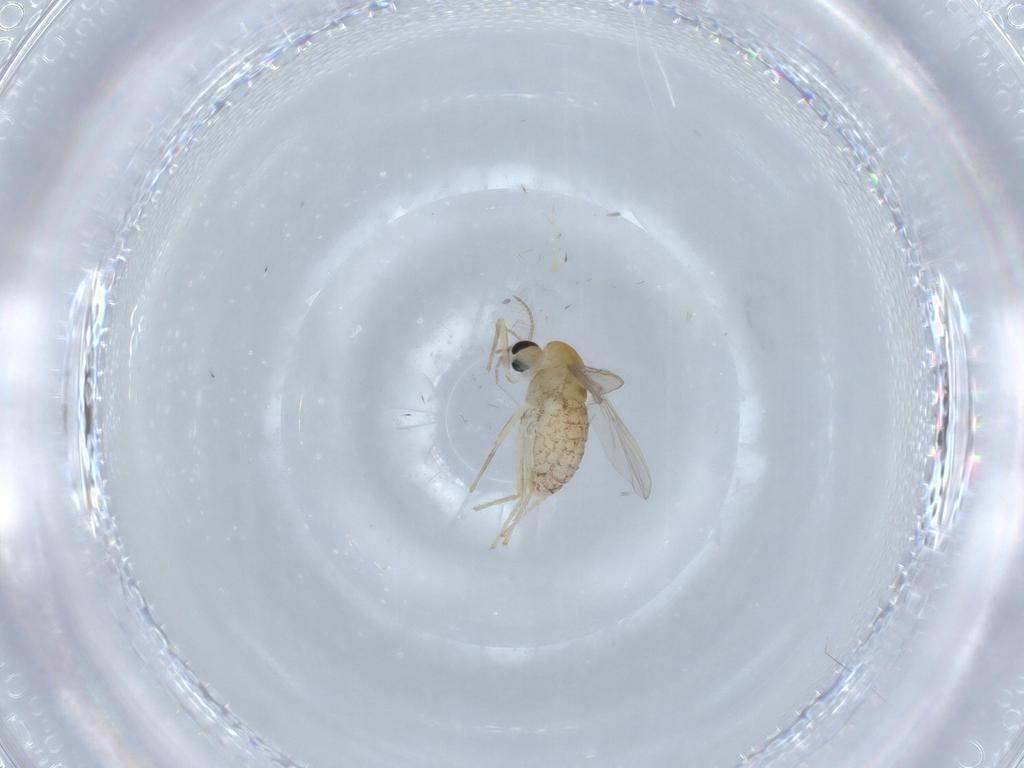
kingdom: Animalia
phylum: Arthropoda
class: Insecta
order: Diptera
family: Chironomidae
